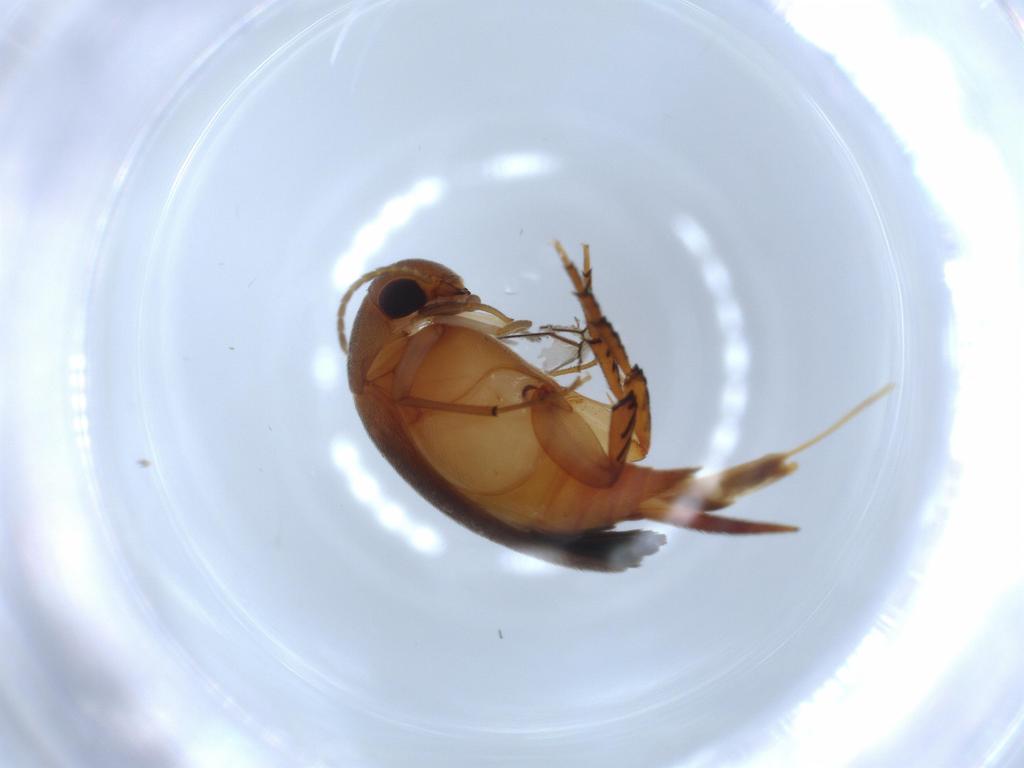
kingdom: Animalia
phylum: Arthropoda
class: Insecta
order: Coleoptera
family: Mordellidae
